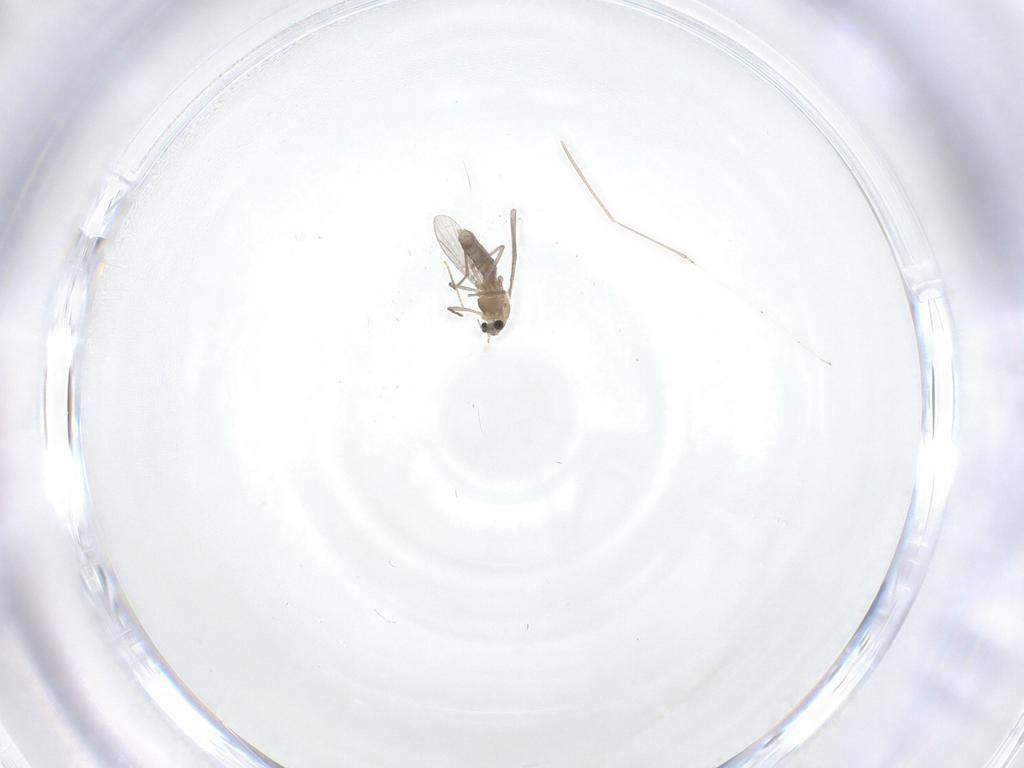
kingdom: Animalia
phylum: Arthropoda
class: Insecta
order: Diptera
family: Chironomidae
